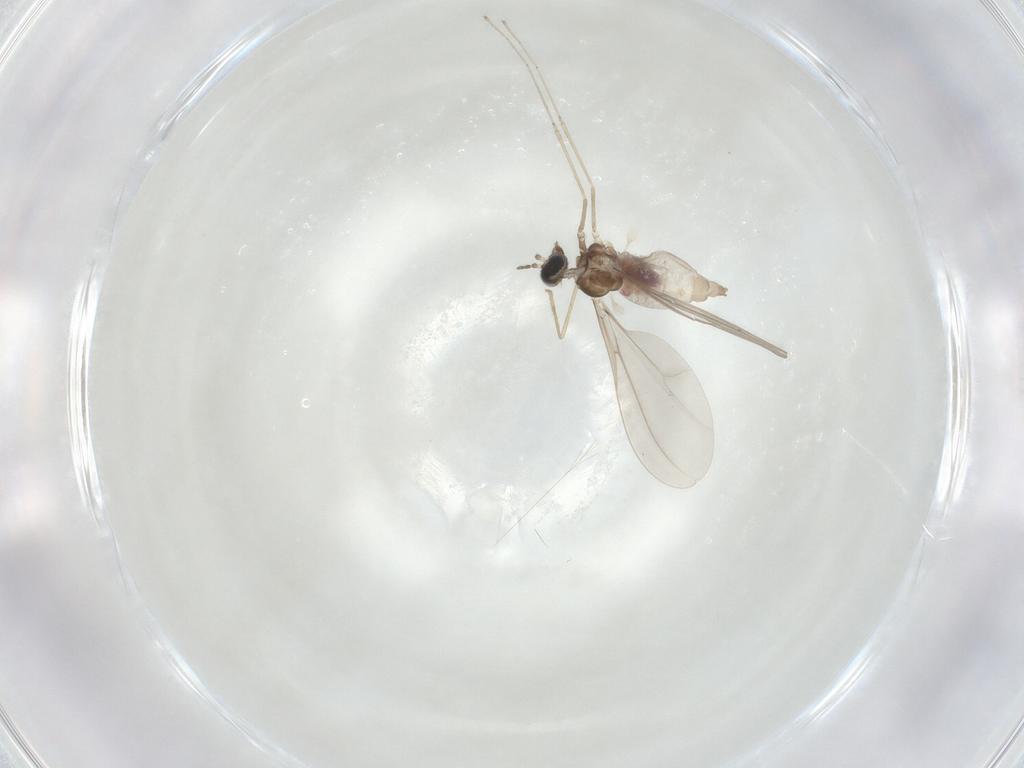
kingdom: Animalia
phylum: Arthropoda
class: Insecta
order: Diptera
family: Cecidomyiidae
